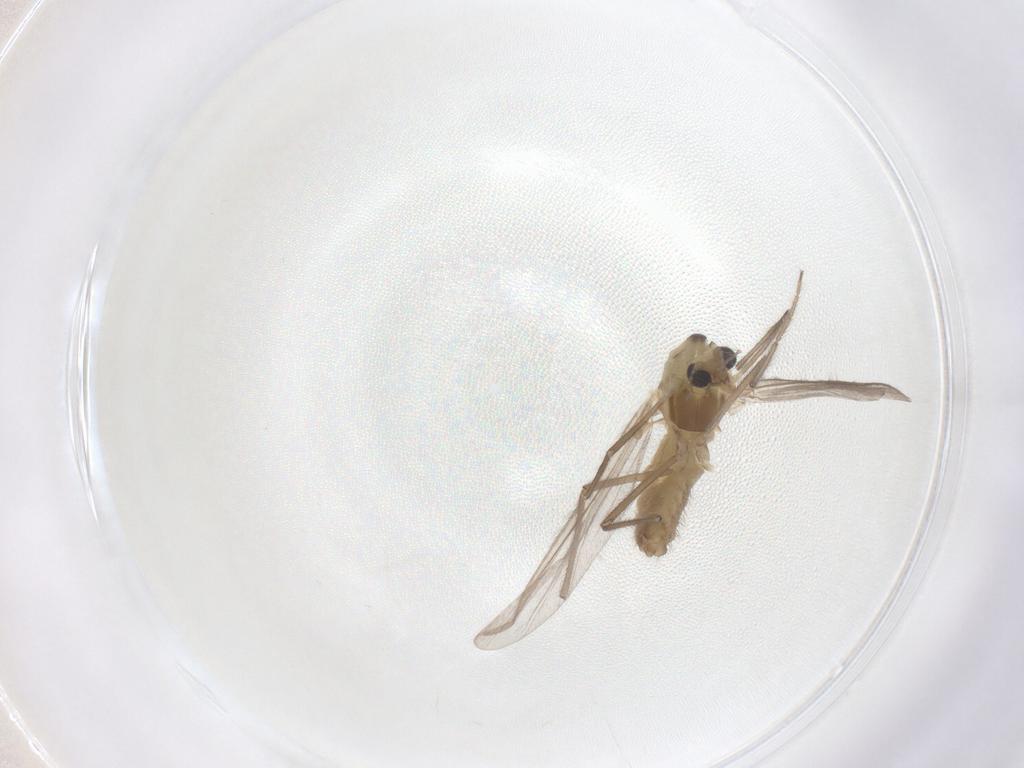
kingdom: Animalia
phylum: Arthropoda
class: Insecta
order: Diptera
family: Chironomidae
